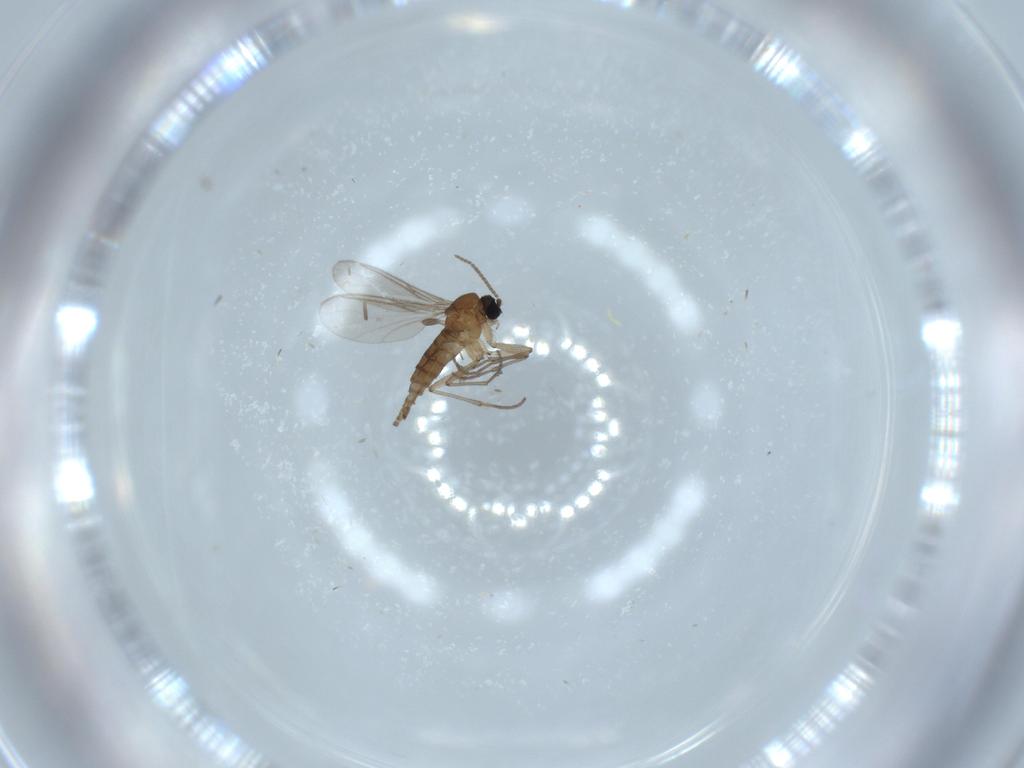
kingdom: Animalia
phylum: Arthropoda
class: Insecta
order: Diptera
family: Sciaridae
